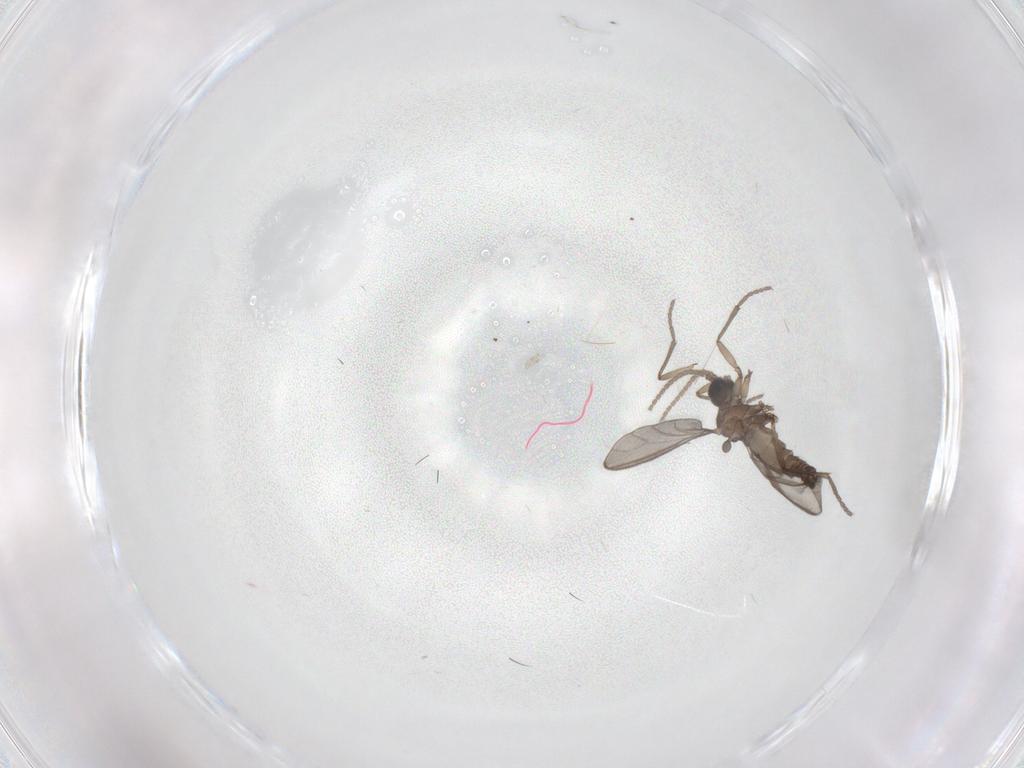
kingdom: Animalia
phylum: Arthropoda
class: Insecta
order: Diptera
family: Sciaridae
